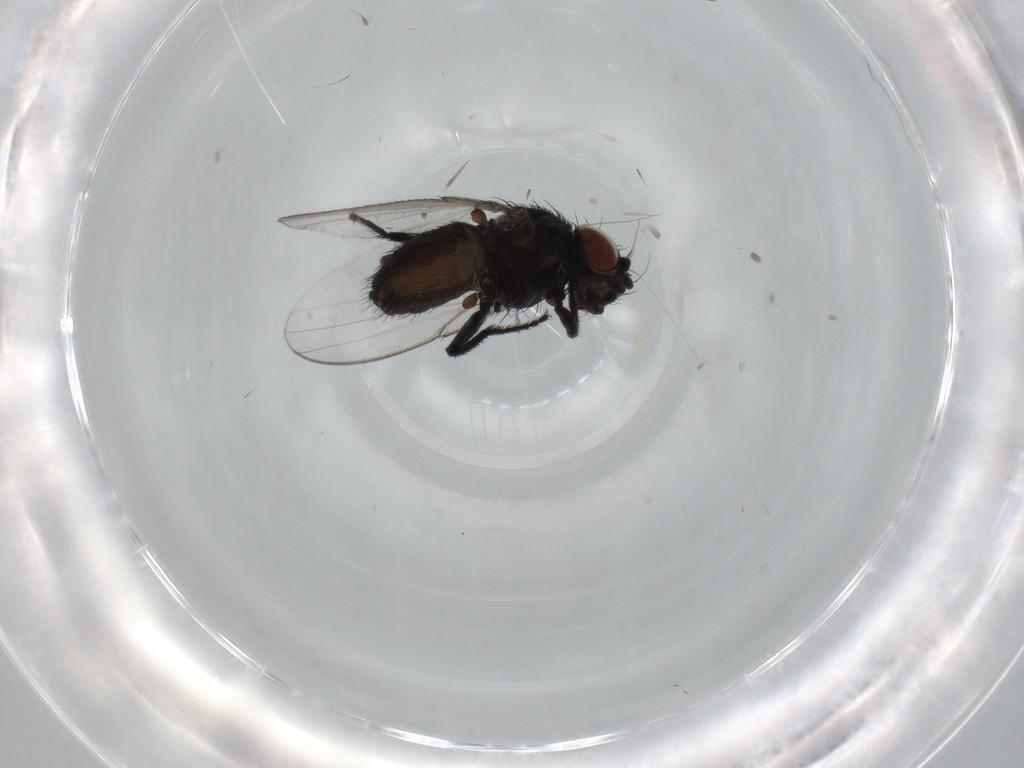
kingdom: Animalia
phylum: Arthropoda
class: Insecta
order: Diptera
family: Milichiidae
